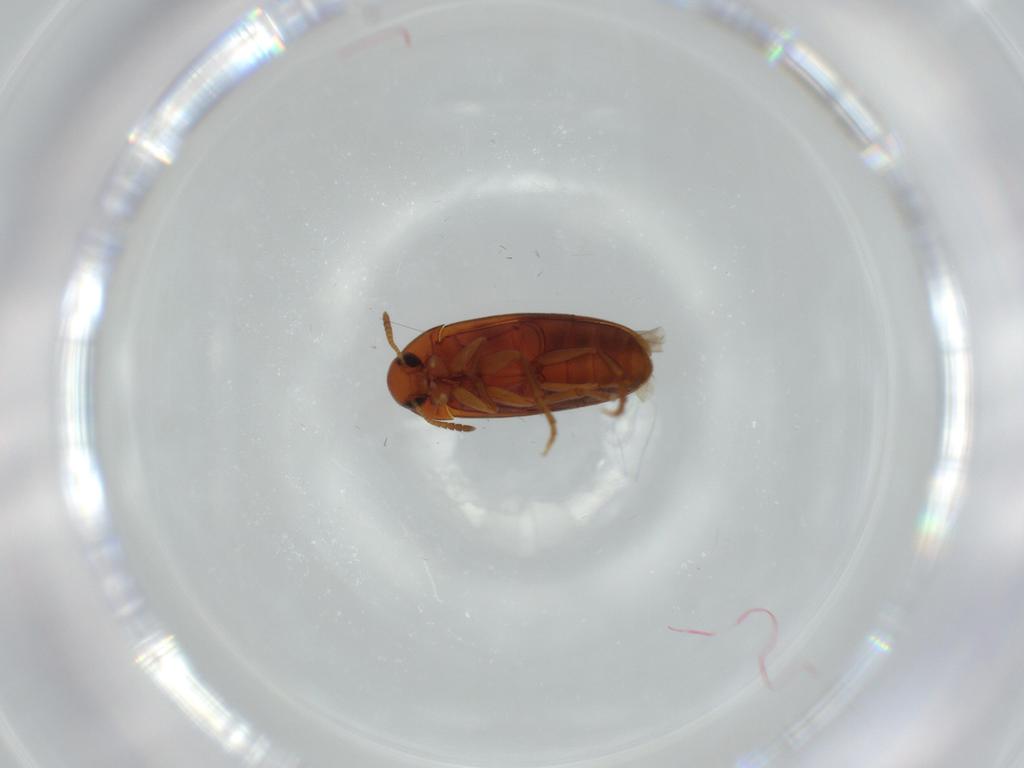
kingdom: Animalia
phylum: Arthropoda
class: Insecta
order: Coleoptera
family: Scraptiidae
